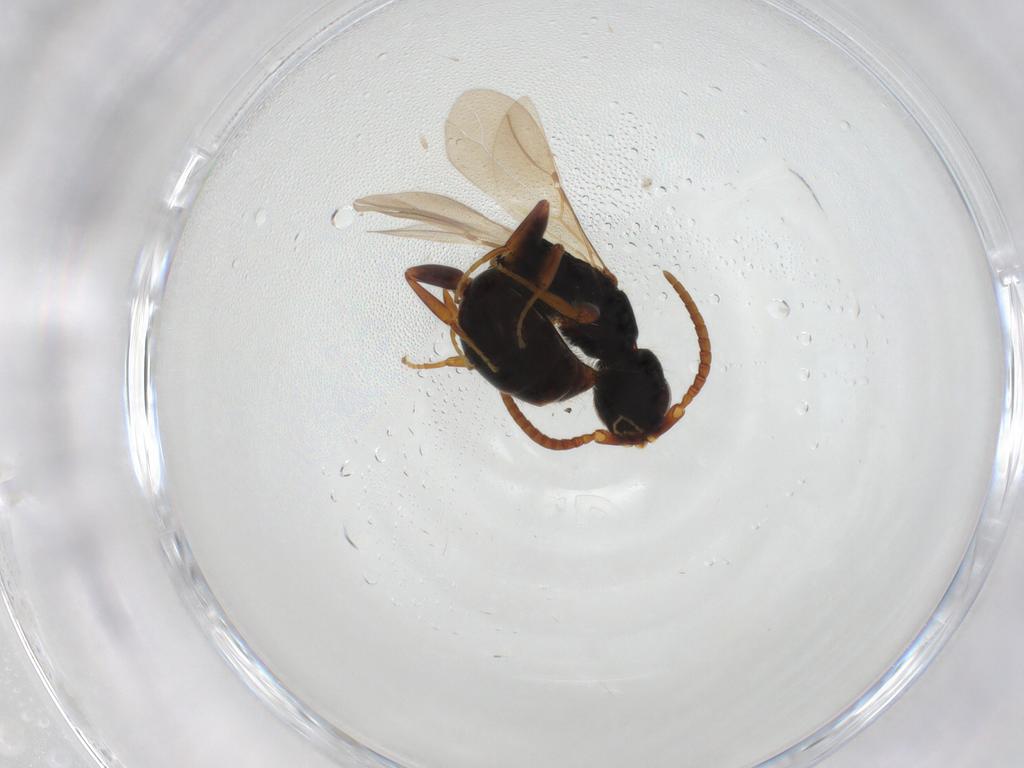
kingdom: Animalia
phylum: Arthropoda
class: Insecta
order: Hymenoptera
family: Bethylidae
